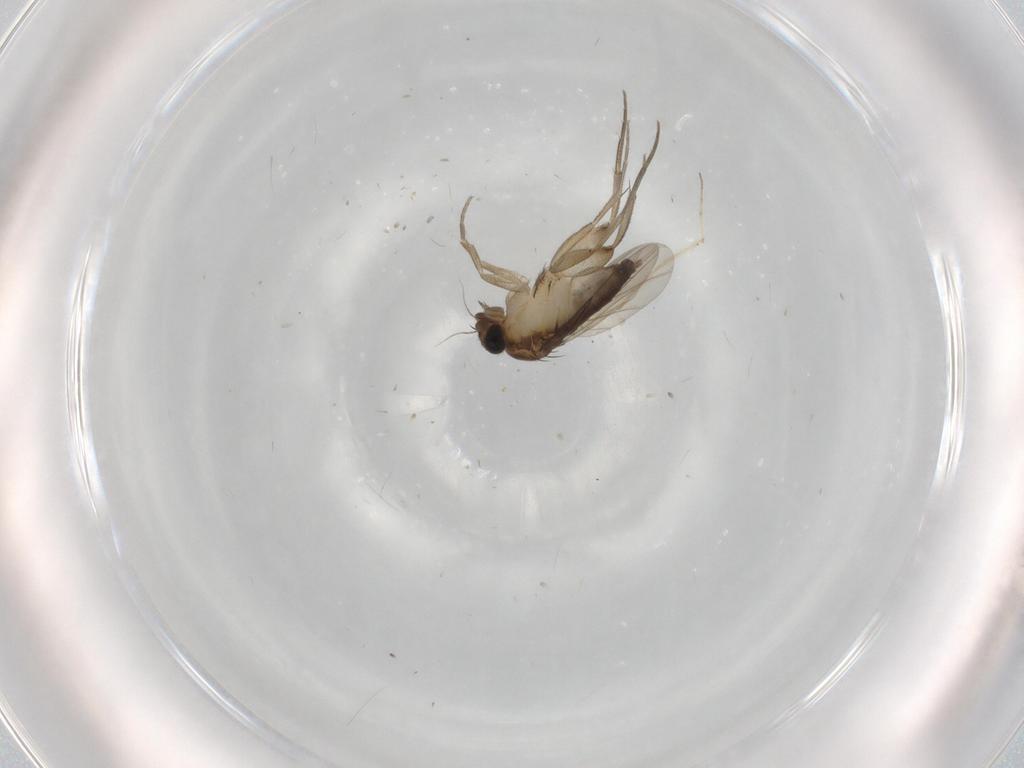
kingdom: Animalia
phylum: Arthropoda
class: Insecta
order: Diptera
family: Phoridae
